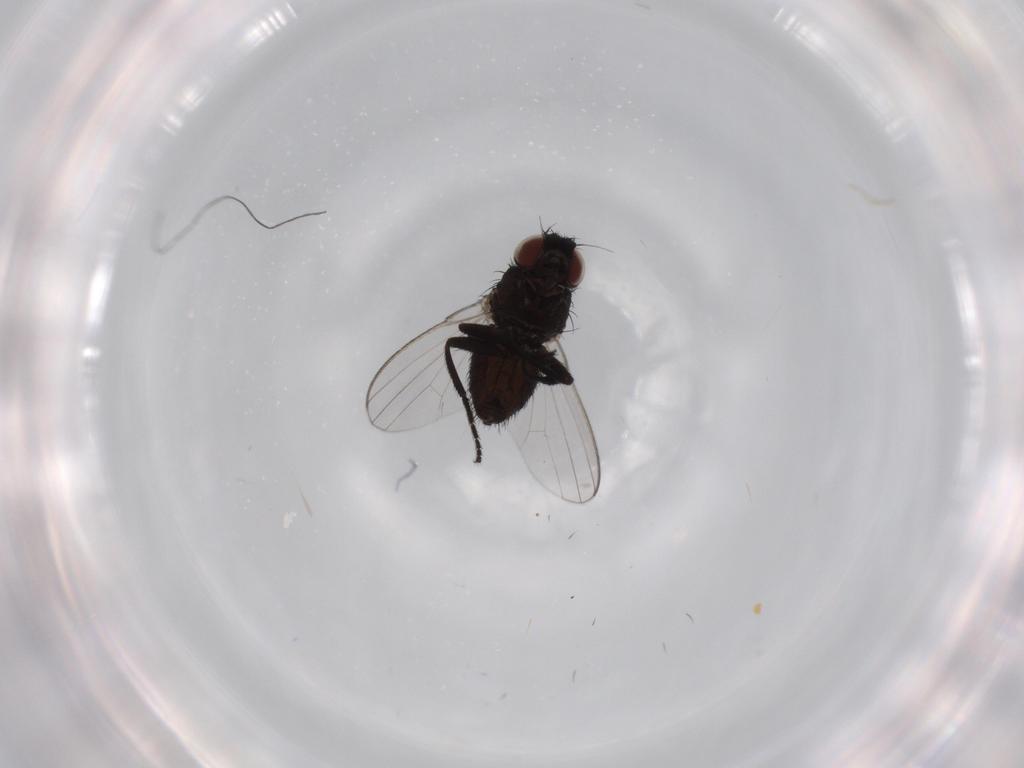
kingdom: Animalia
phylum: Arthropoda
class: Insecta
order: Diptera
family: Milichiidae
